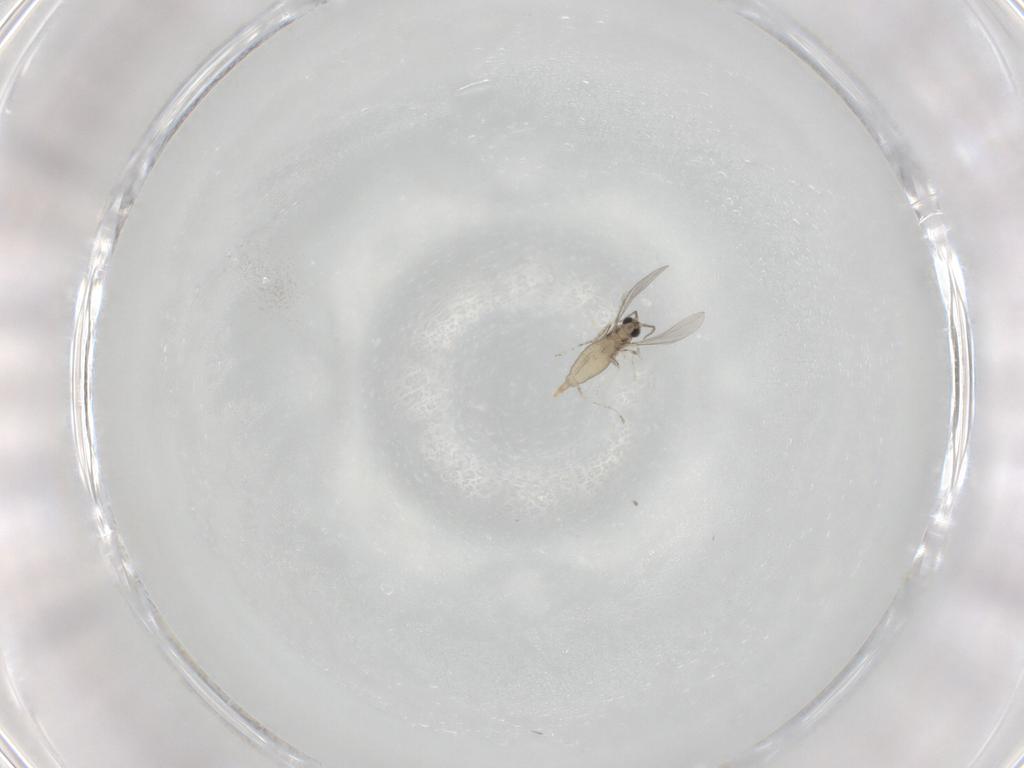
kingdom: Animalia
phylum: Arthropoda
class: Insecta
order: Diptera
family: Cecidomyiidae
